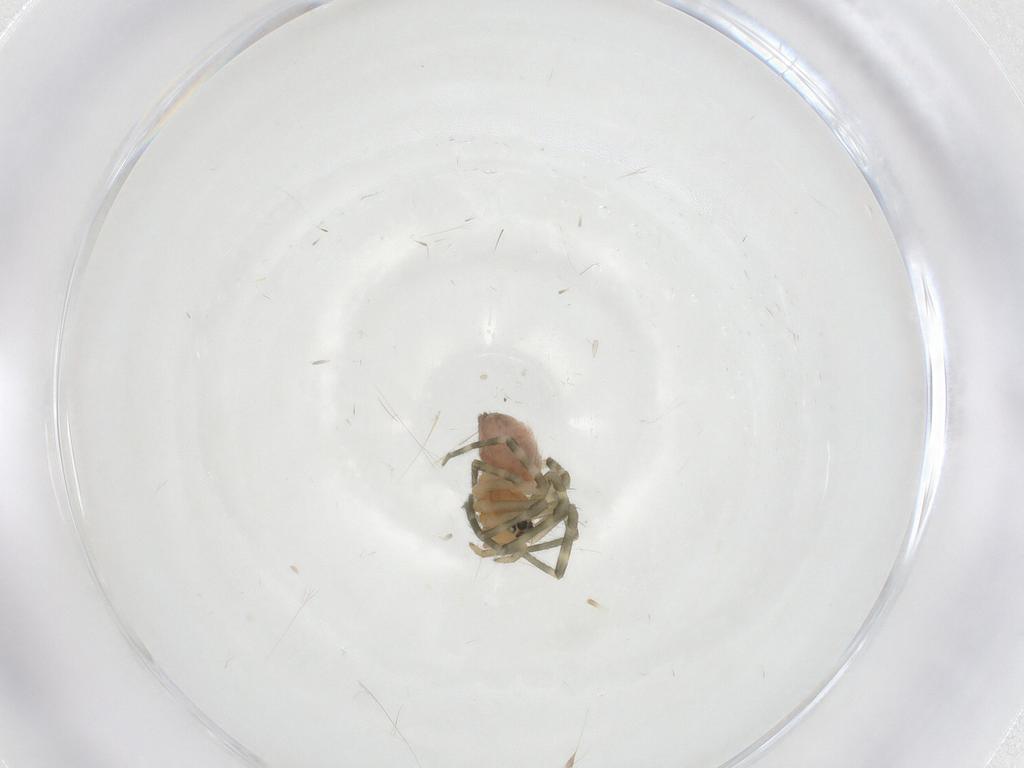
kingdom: Animalia
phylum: Arthropoda
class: Arachnida
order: Araneae
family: Linyphiidae
